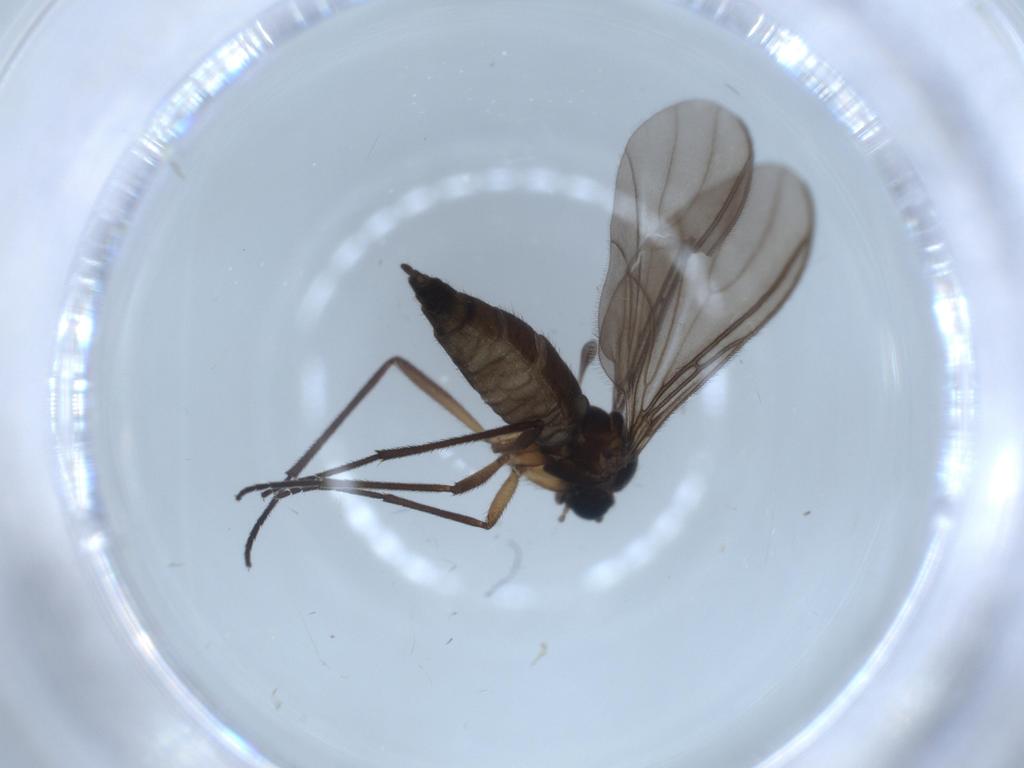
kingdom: Animalia
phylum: Arthropoda
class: Insecta
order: Diptera
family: Sciaridae
